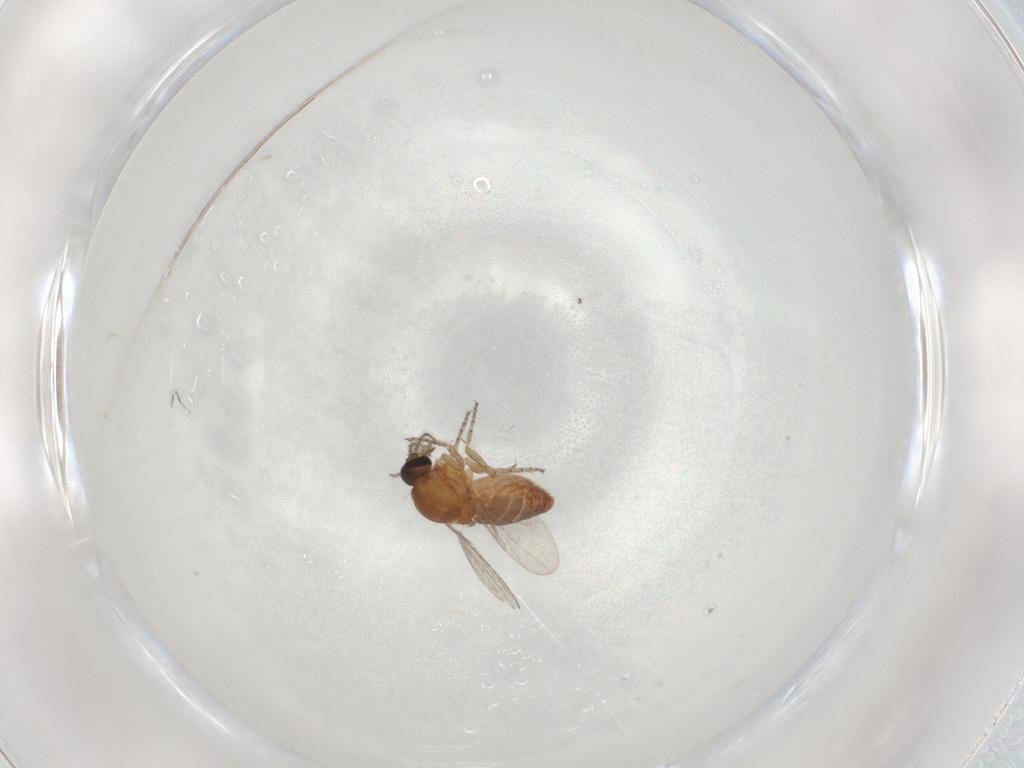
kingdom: Animalia
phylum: Arthropoda
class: Insecta
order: Diptera
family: Ceratopogonidae
